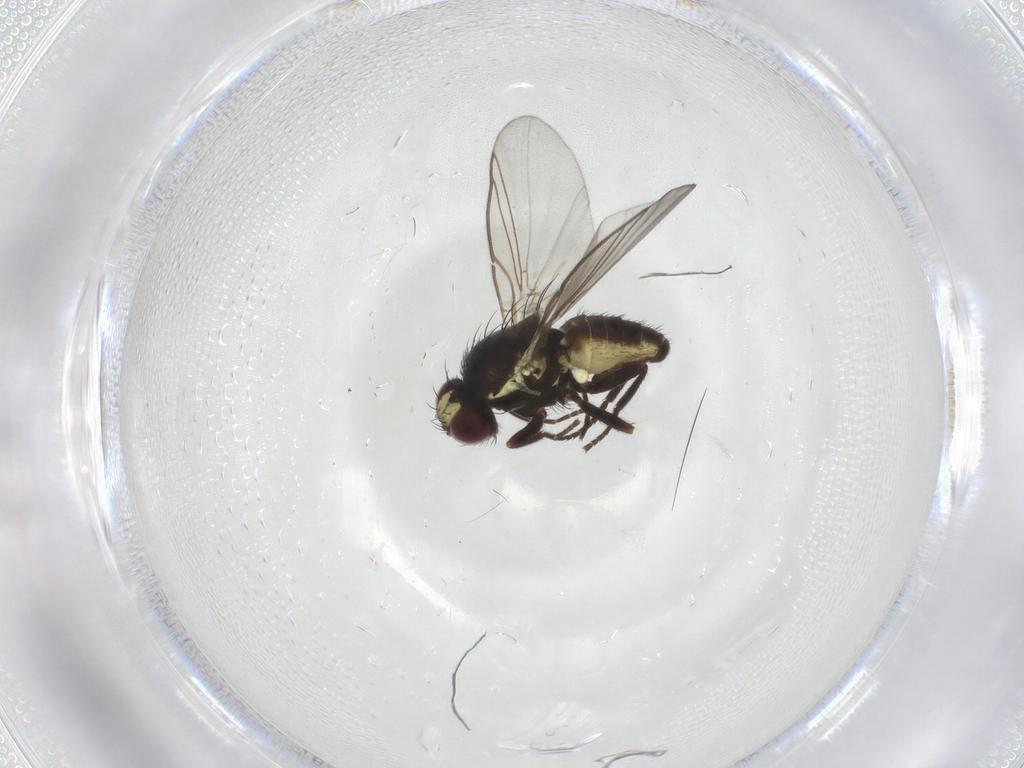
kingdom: Animalia
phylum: Arthropoda
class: Insecta
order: Diptera
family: Agromyzidae
